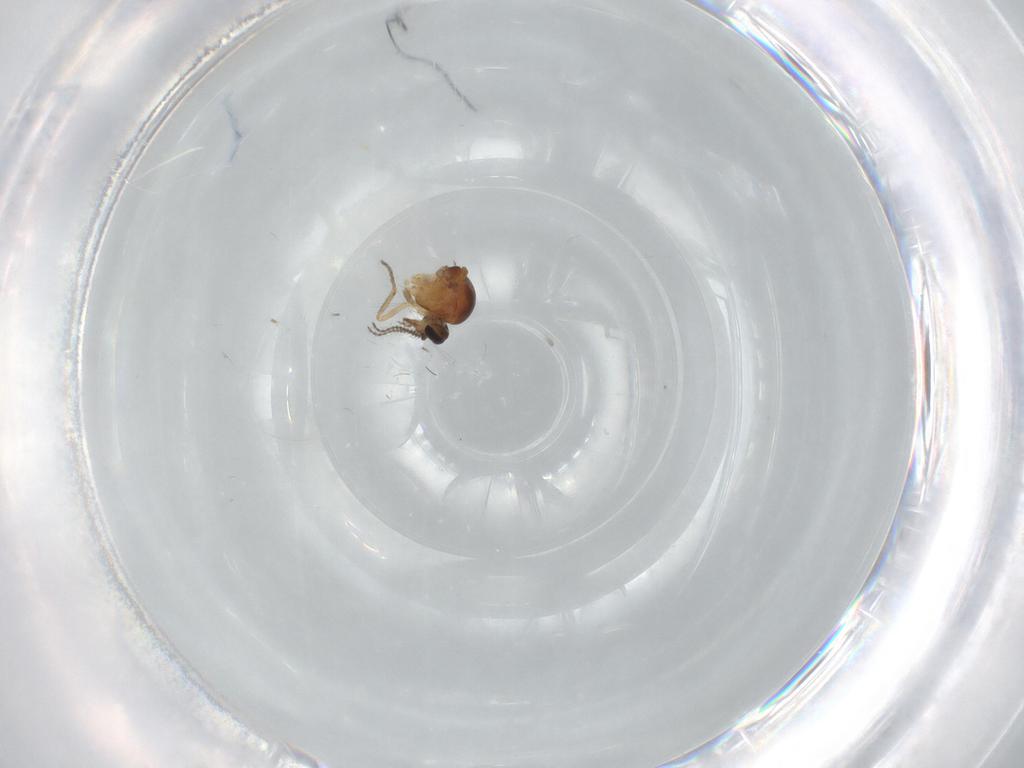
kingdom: Animalia
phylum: Arthropoda
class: Insecta
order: Diptera
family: Ceratopogonidae
